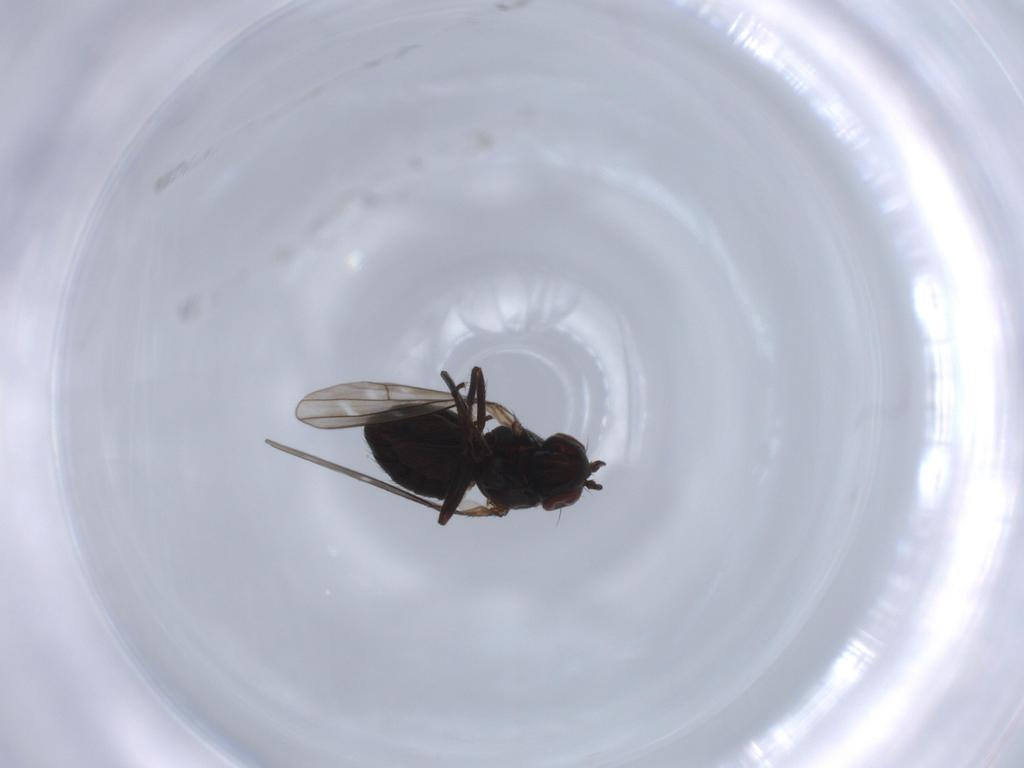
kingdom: Animalia
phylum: Arthropoda
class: Insecta
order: Diptera
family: Ephydridae
